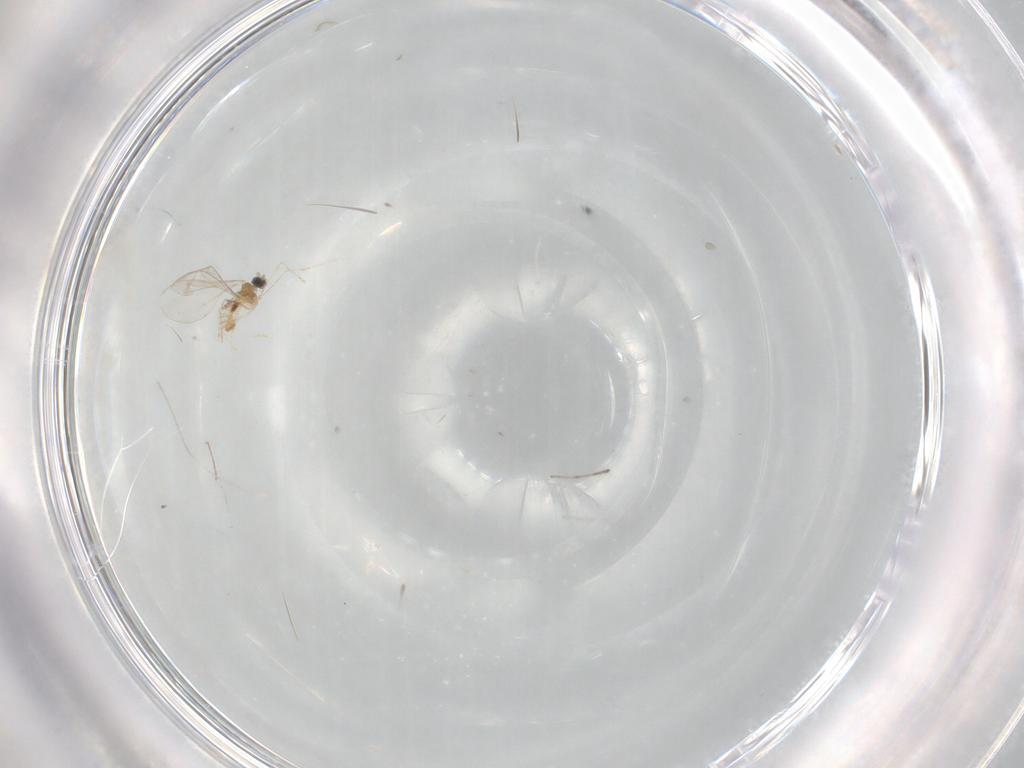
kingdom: Animalia
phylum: Arthropoda
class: Insecta
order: Diptera
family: Cecidomyiidae
